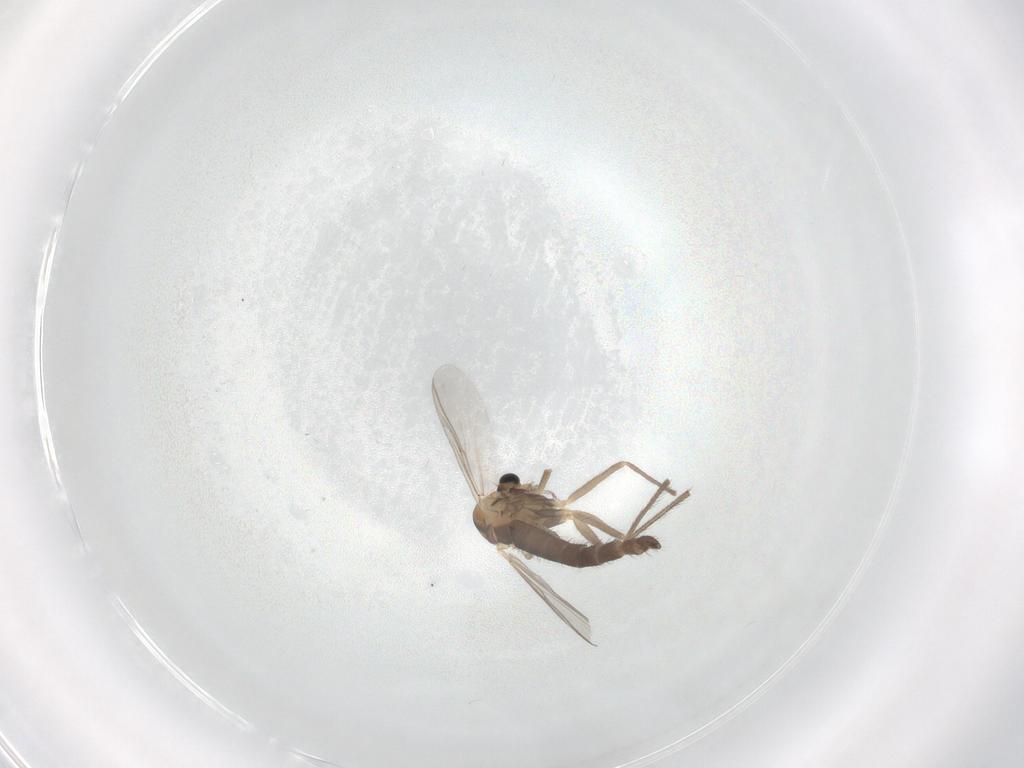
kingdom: Animalia
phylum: Arthropoda
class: Insecta
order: Diptera
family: Chironomidae
